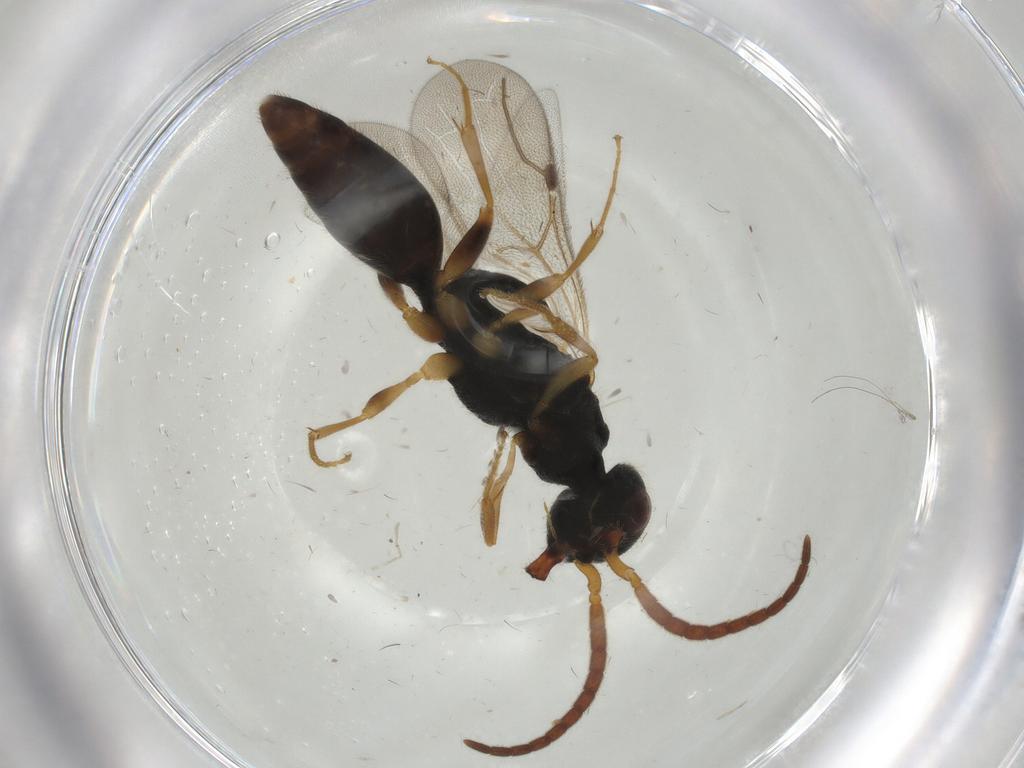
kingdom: Animalia
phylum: Arthropoda
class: Insecta
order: Hymenoptera
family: Bethylidae
